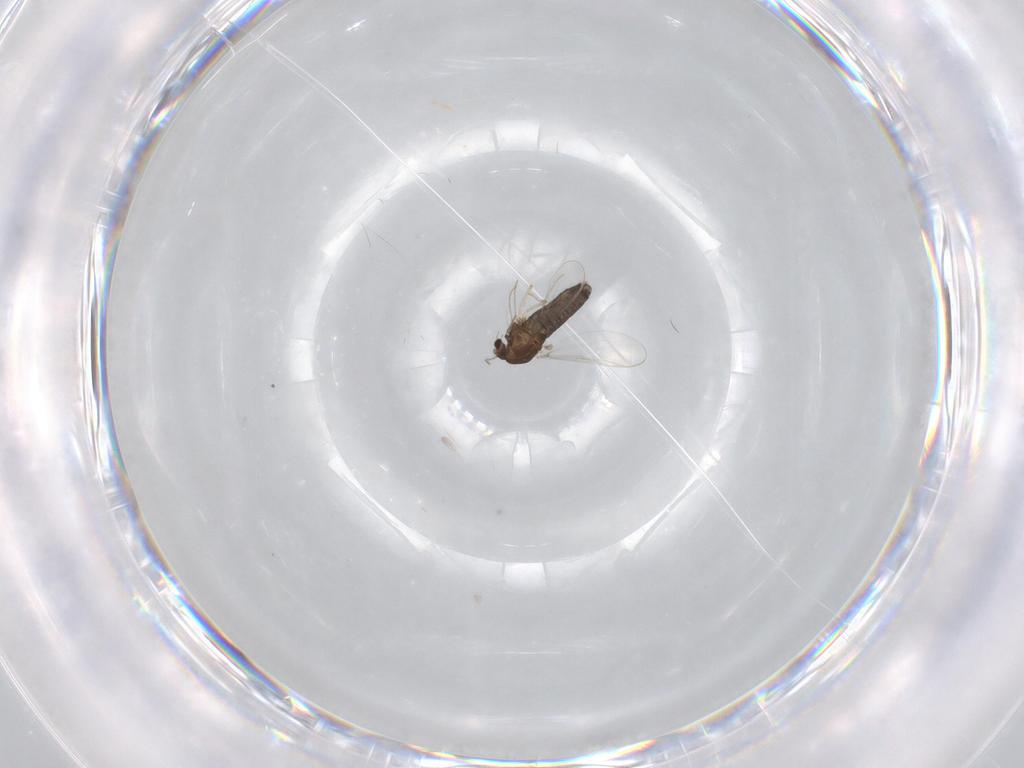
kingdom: Animalia
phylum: Arthropoda
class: Insecta
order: Diptera
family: Chironomidae
